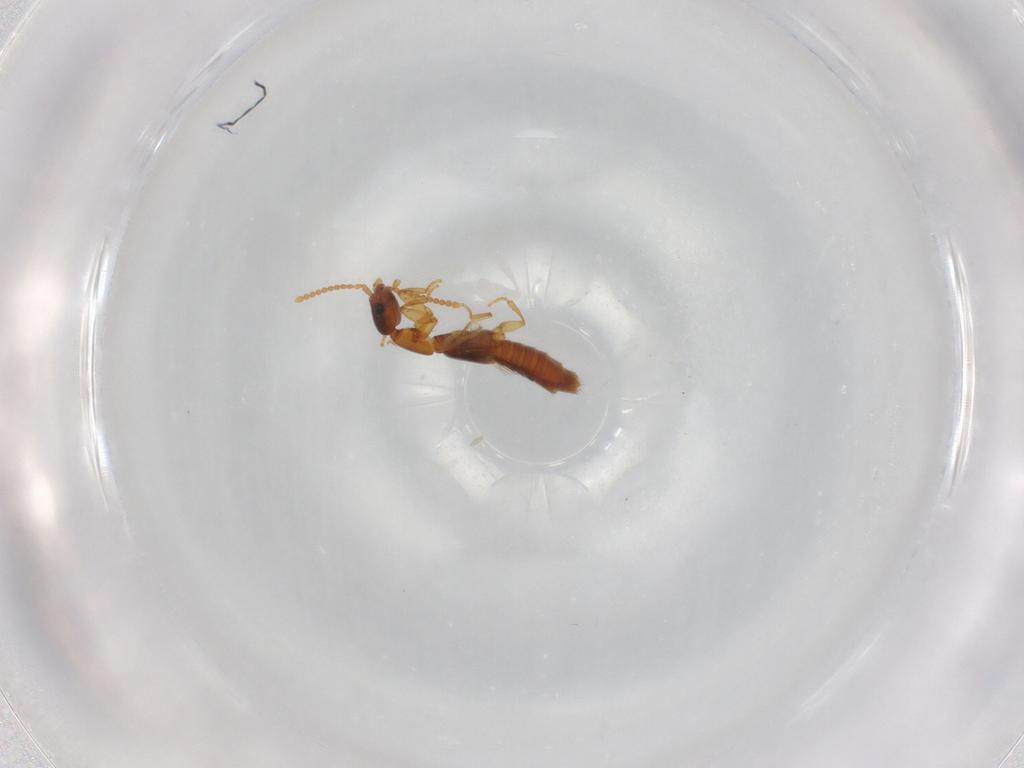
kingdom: Animalia
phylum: Arthropoda
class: Insecta
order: Coleoptera
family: Staphylinidae
